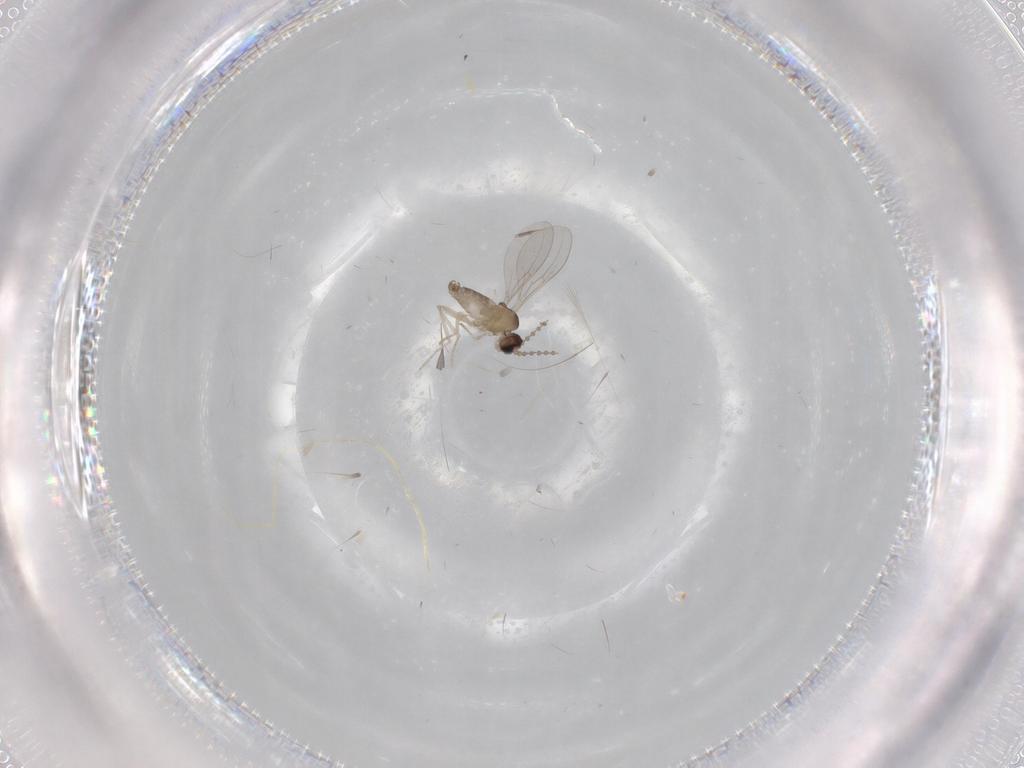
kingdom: Animalia
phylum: Arthropoda
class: Insecta
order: Diptera
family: Cecidomyiidae
